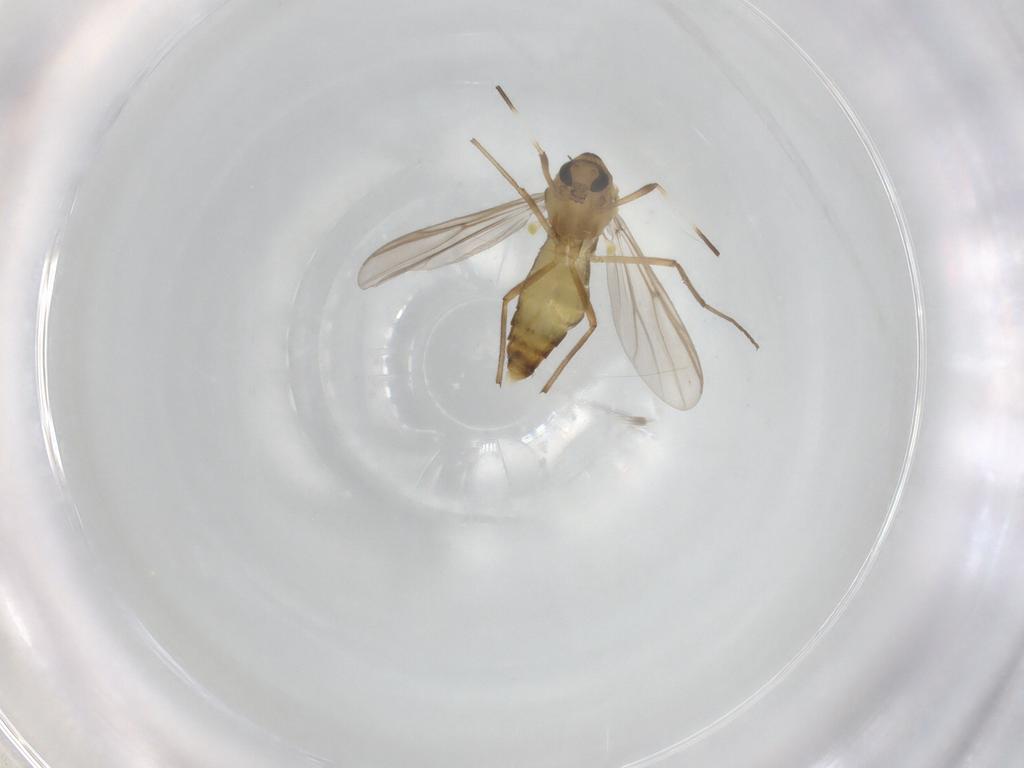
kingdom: Animalia
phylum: Arthropoda
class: Insecta
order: Diptera
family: Phoridae
